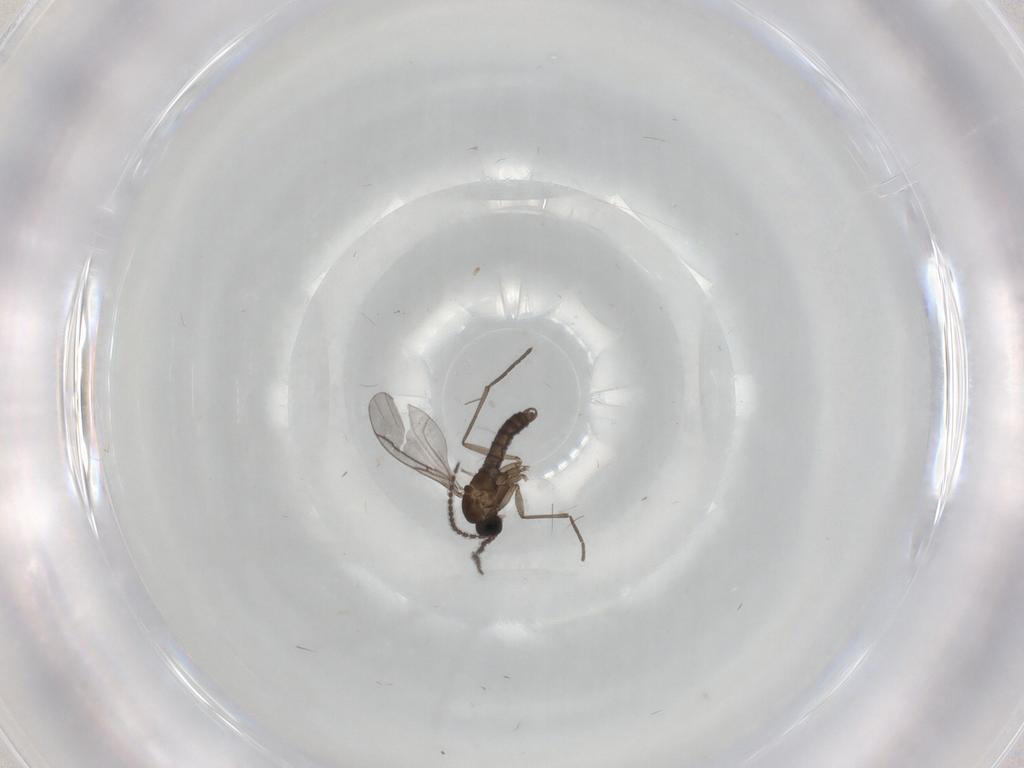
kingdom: Animalia
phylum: Arthropoda
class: Insecta
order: Diptera
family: Cecidomyiidae
